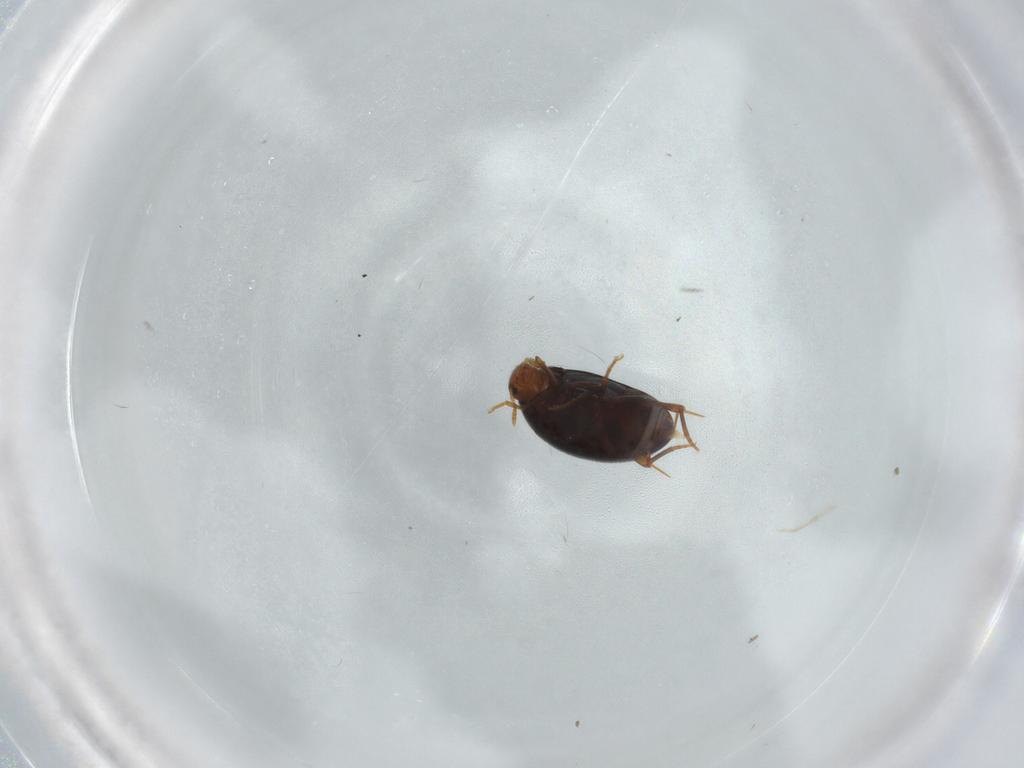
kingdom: Animalia
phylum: Arthropoda
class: Insecta
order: Coleoptera
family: Melandryidae
